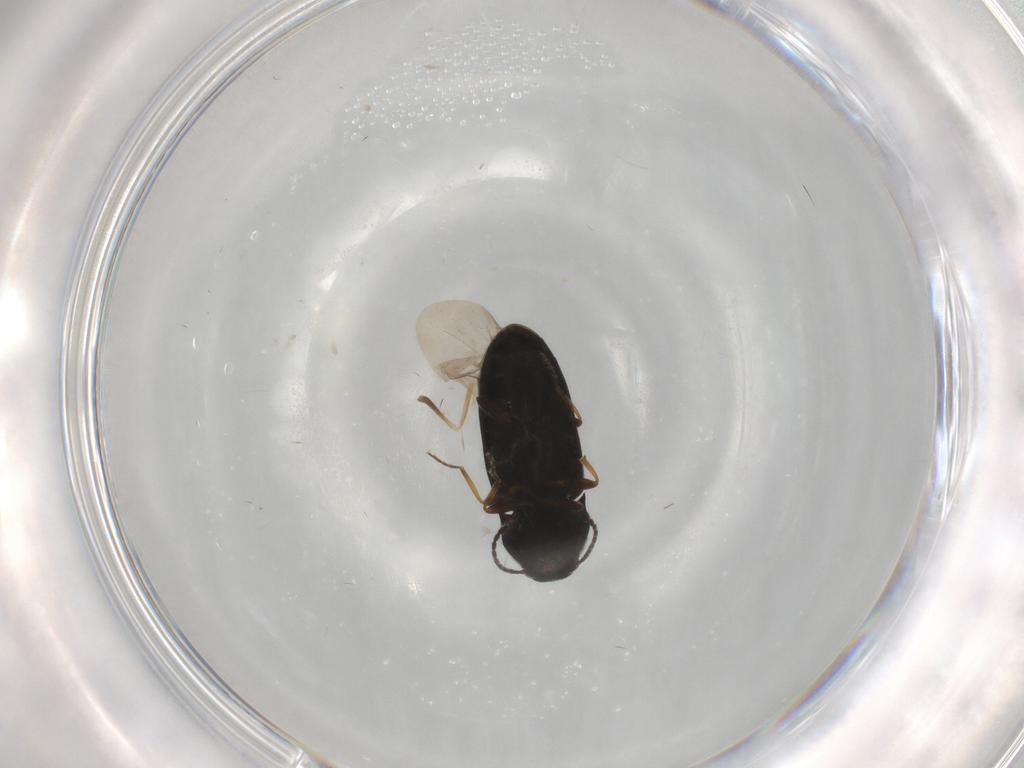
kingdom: Animalia
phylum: Arthropoda
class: Insecta
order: Coleoptera
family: Elateridae
